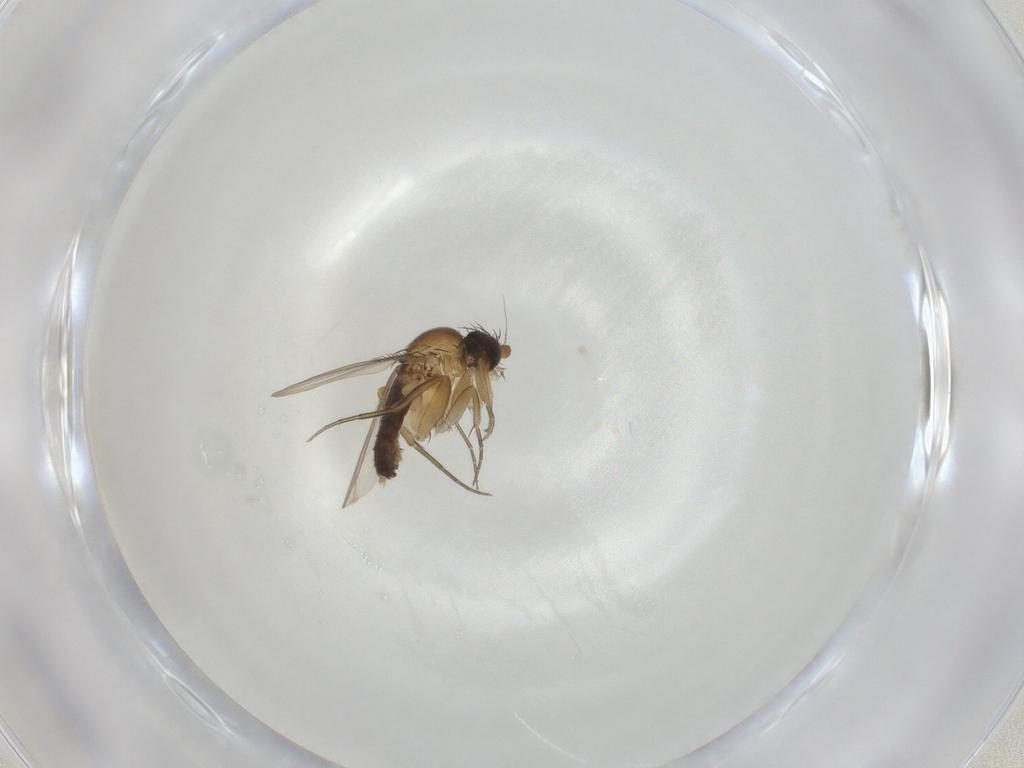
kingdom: Animalia
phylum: Arthropoda
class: Insecta
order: Diptera
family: Phoridae
